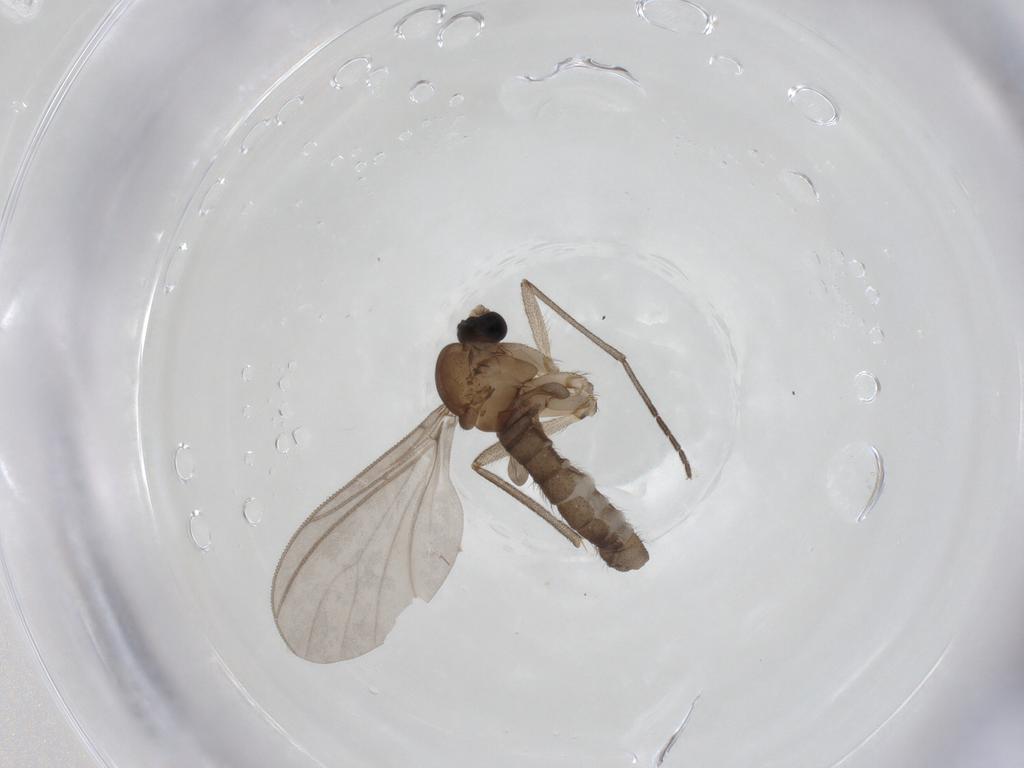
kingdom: Animalia
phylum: Arthropoda
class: Insecta
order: Diptera
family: Sciaridae
